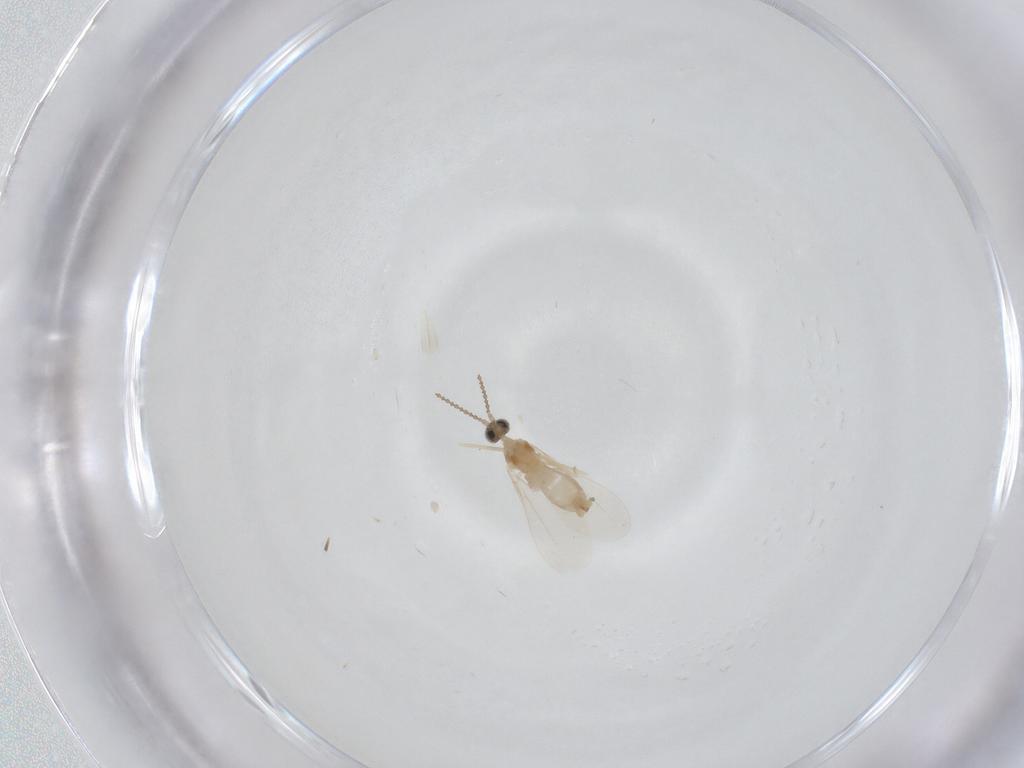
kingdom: Animalia
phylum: Arthropoda
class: Insecta
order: Diptera
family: Cecidomyiidae
